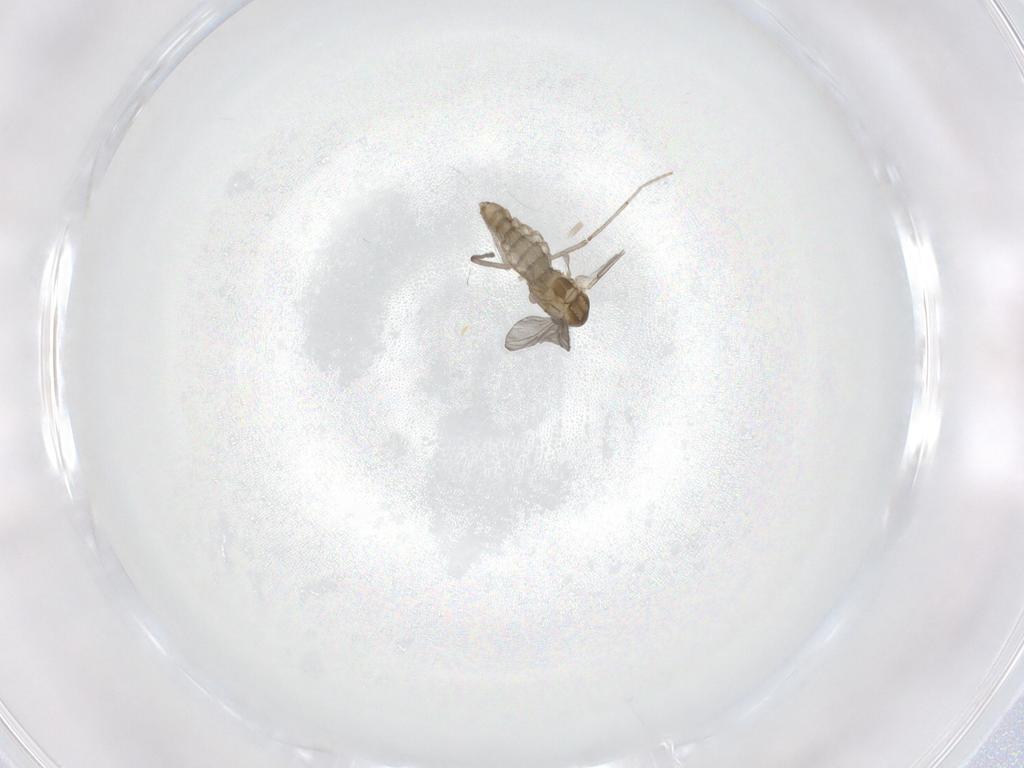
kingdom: Animalia
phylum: Arthropoda
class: Insecta
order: Diptera
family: Chironomidae
